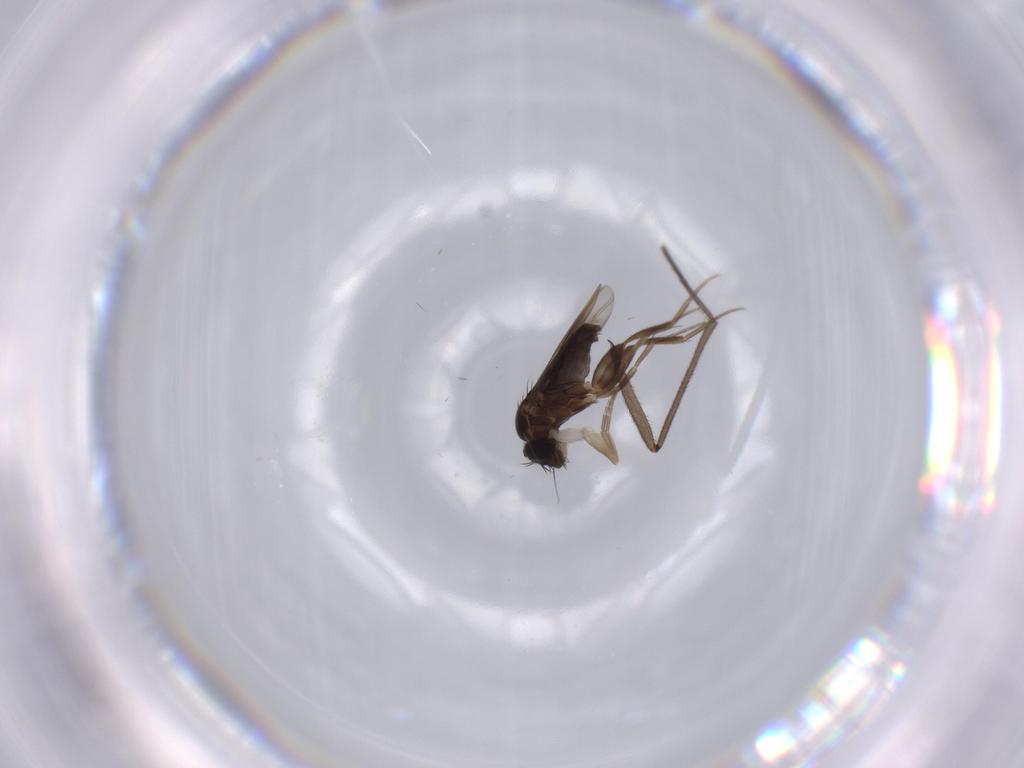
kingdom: Animalia
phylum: Arthropoda
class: Insecta
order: Diptera
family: Phoridae
